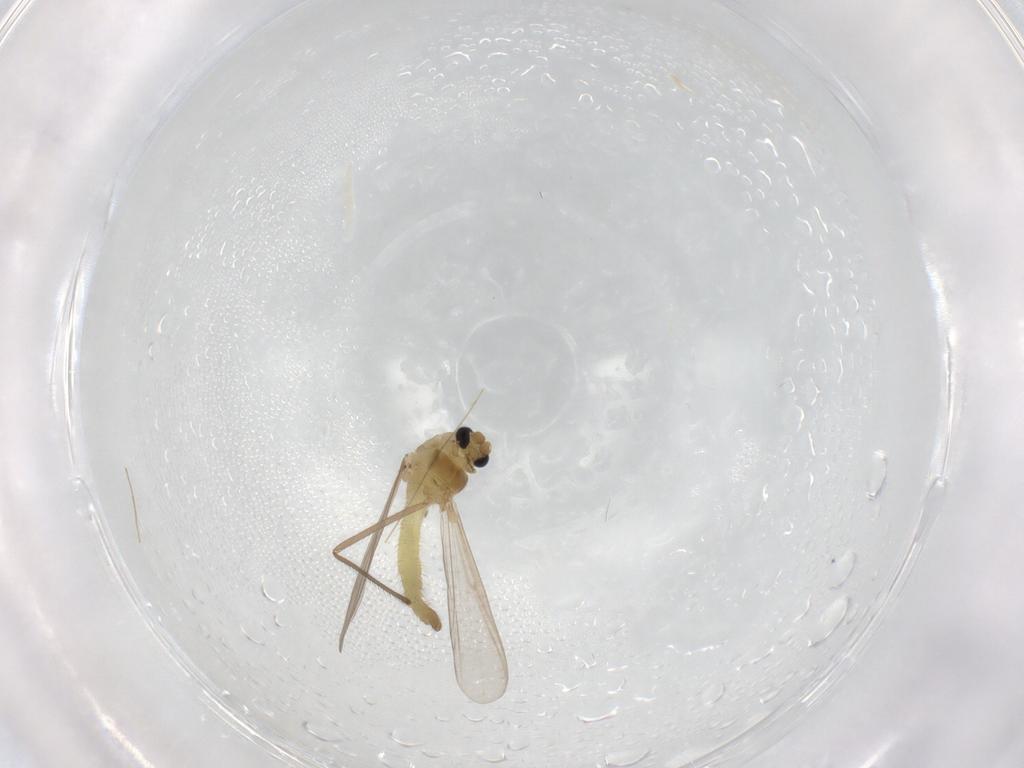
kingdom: Animalia
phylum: Arthropoda
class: Insecta
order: Diptera
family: Chironomidae
